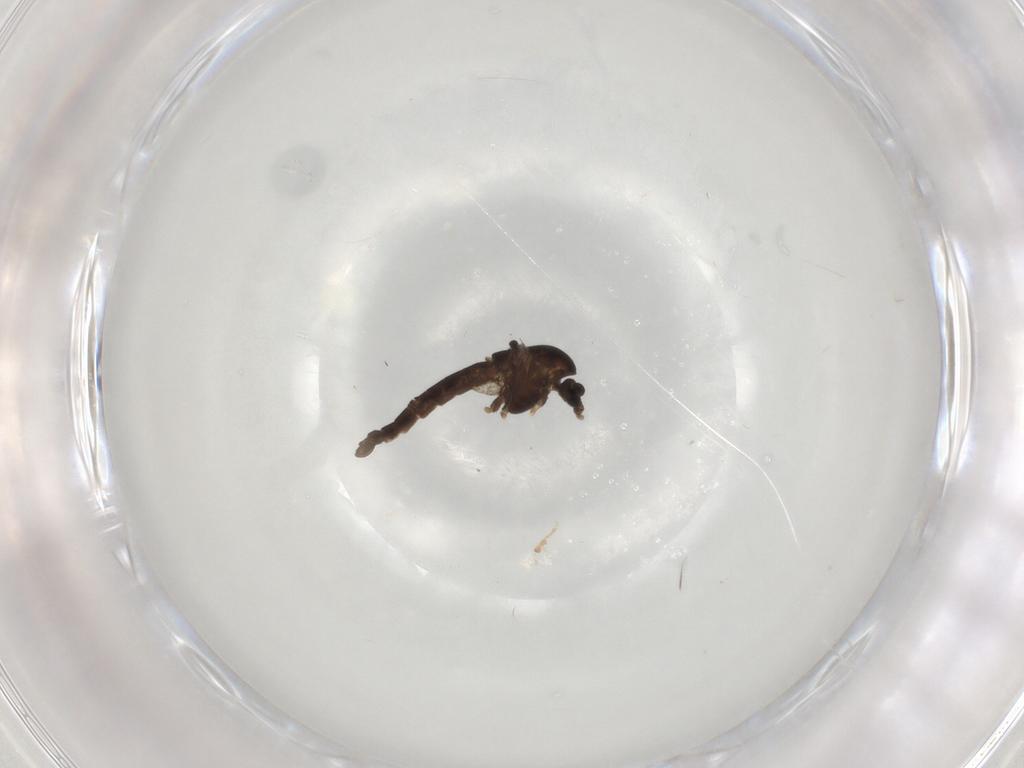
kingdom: Animalia
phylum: Arthropoda
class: Insecta
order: Diptera
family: Chironomidae
